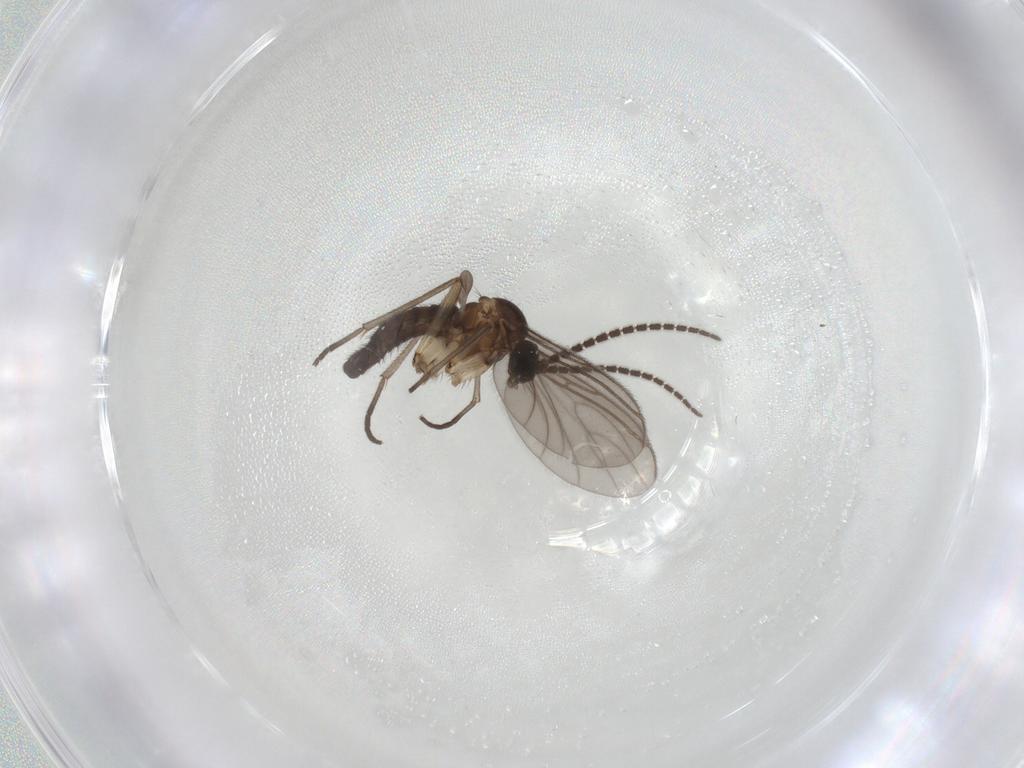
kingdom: Animalia
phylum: Arthropoda
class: Insecta
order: Diptera
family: Sciaridae
